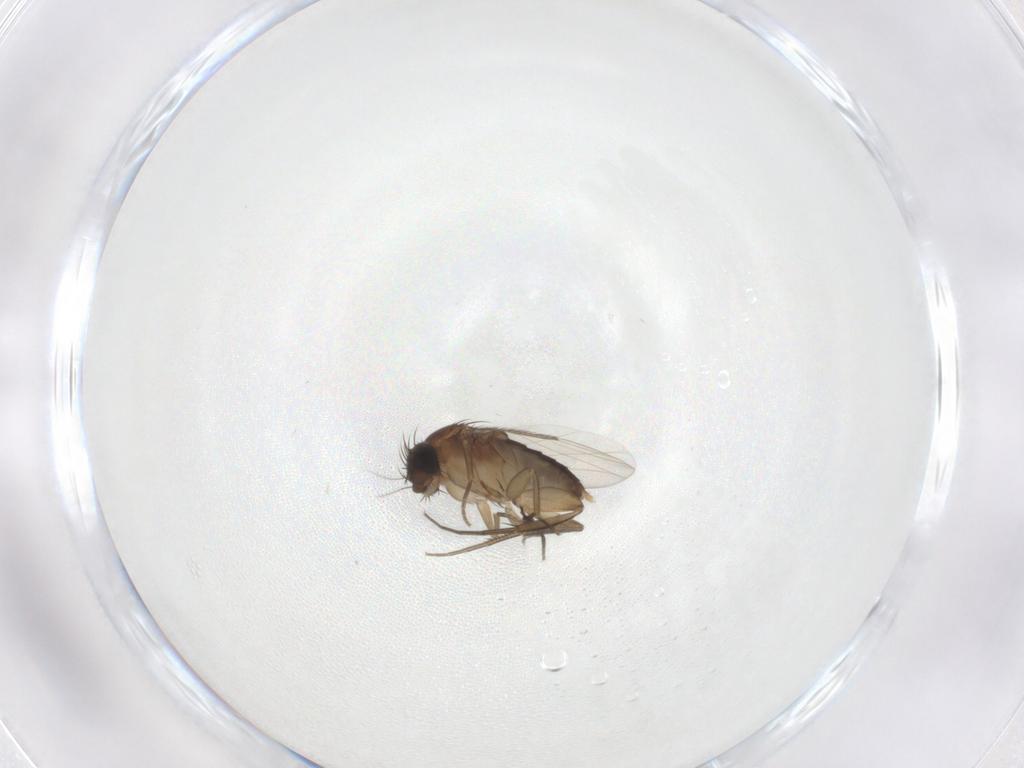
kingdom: Animalia
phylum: Arthropoda
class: Insecta
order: Diptera
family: Phoridae
